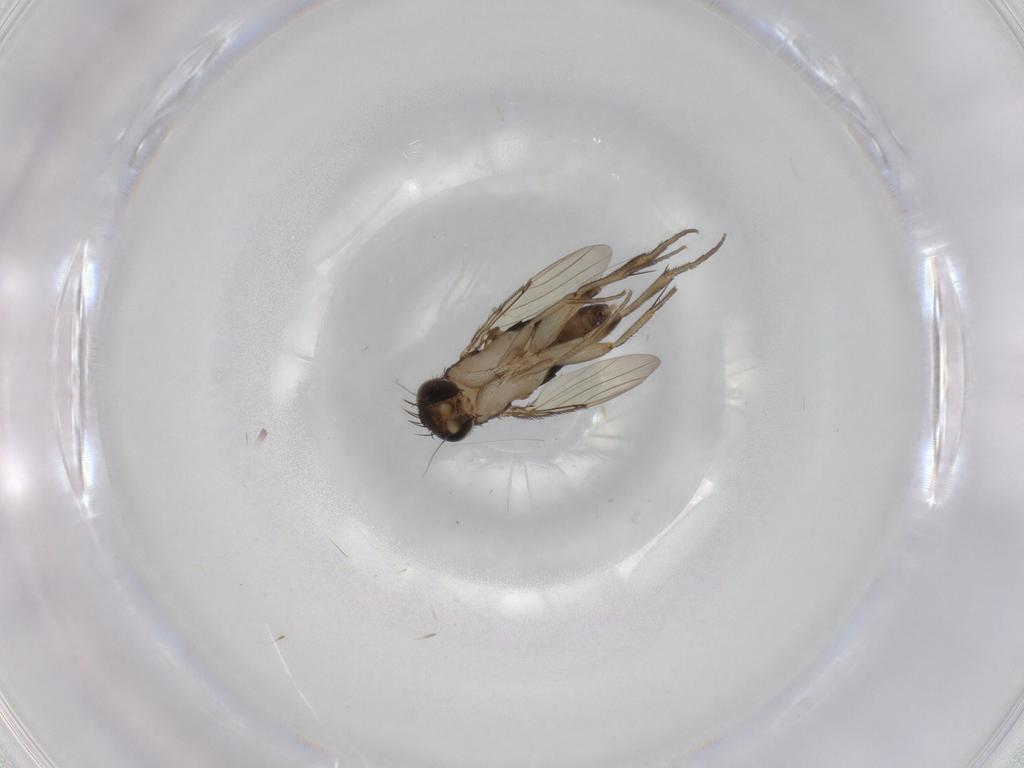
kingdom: Animalia
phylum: Arthropoda
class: Insecta
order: Diptera
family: Phoridae
